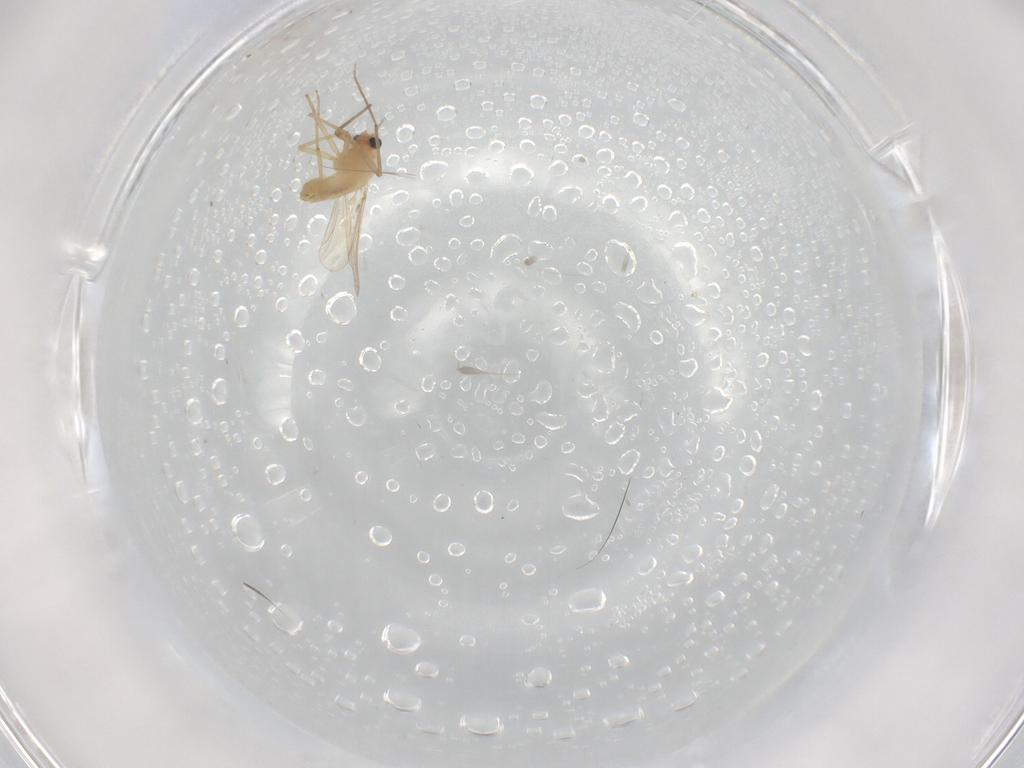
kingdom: Animalia
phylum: Arthropoda
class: Insecta
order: Diptera
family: Chironomidae
